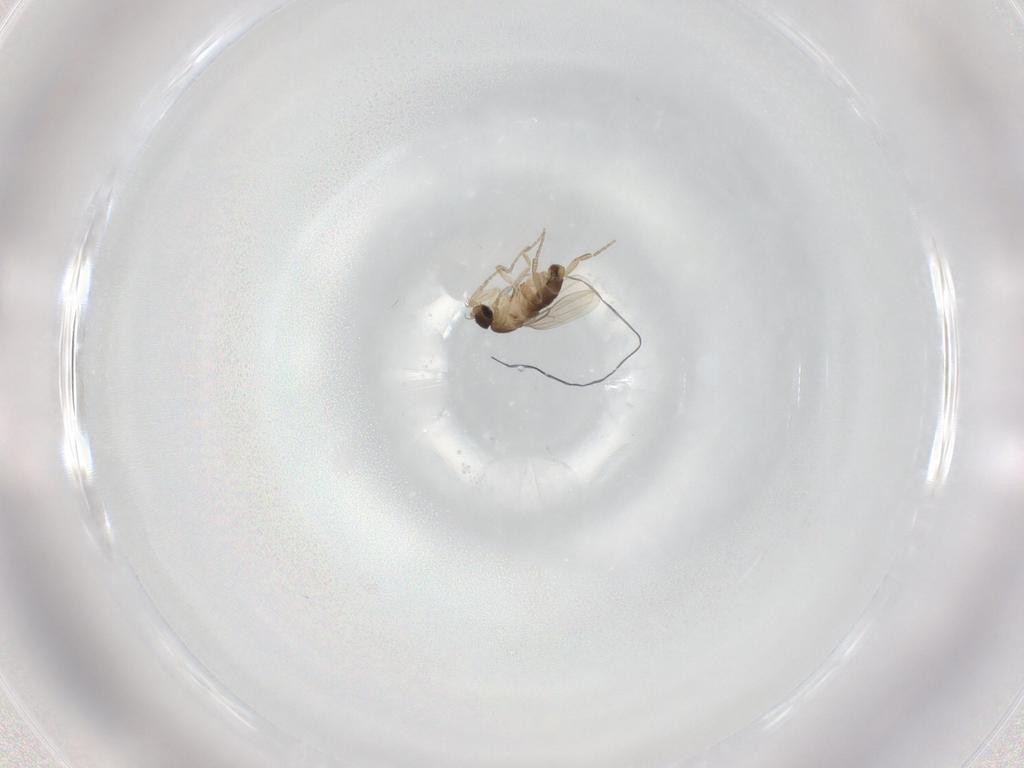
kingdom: Animalia
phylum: Arthropoda
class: Insecta
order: Diptera
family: Phoridae
